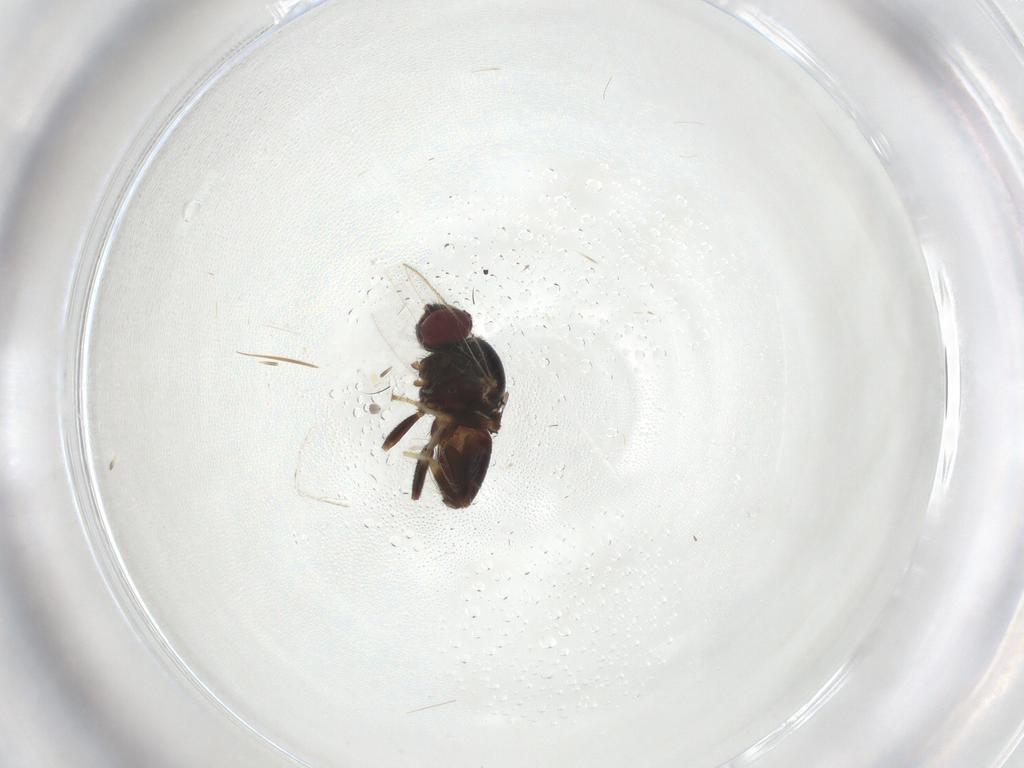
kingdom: Animalia
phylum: Arthropoda
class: Insecta
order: Diptera
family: Chloropidae
